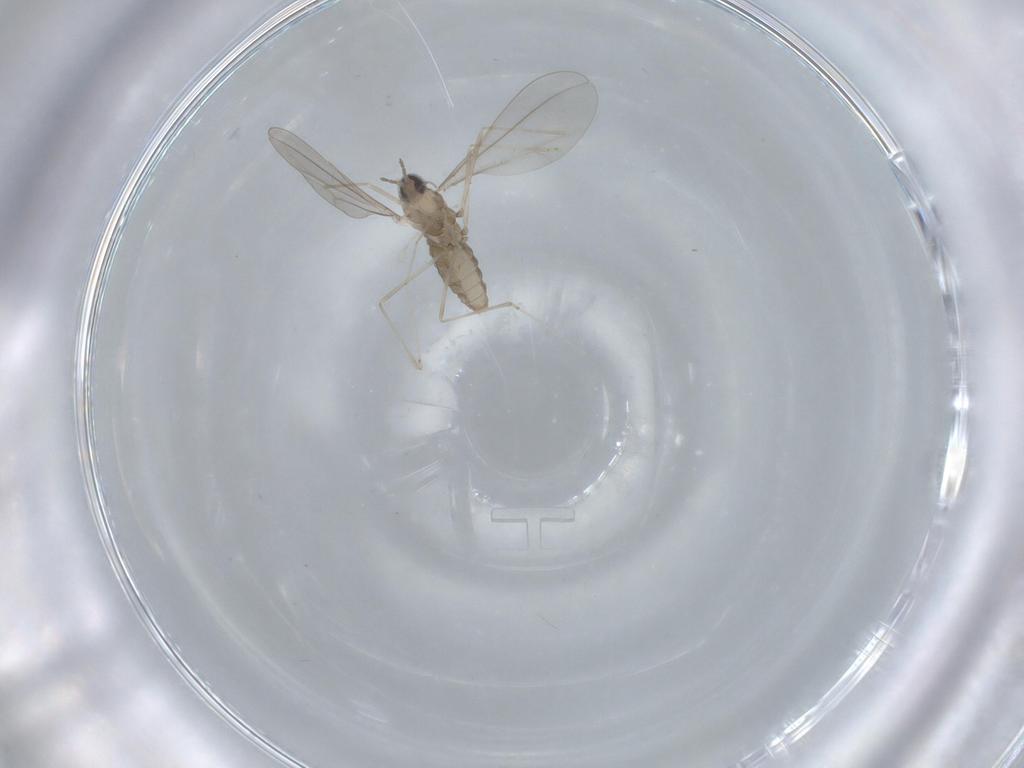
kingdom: Animalia
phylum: Arthropoda
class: Insecta
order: Diptera
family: Cecidomyiidae
